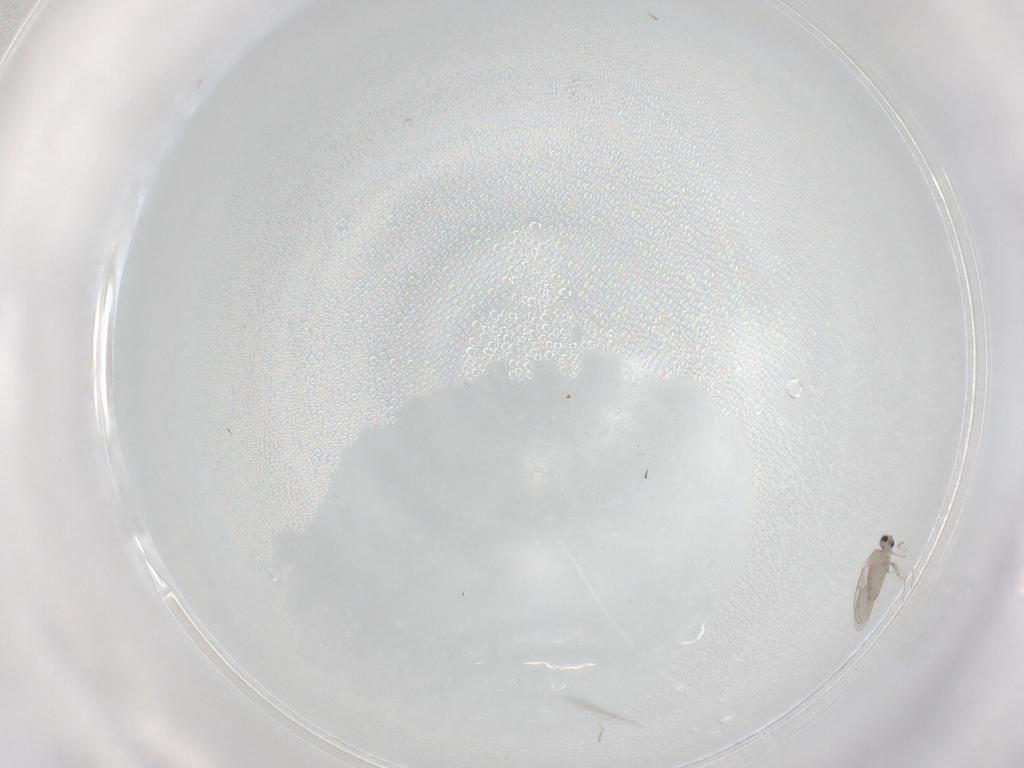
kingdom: Animalia
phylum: Arthropoda
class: Insecta
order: Diptera
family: Cecidomyiidae
